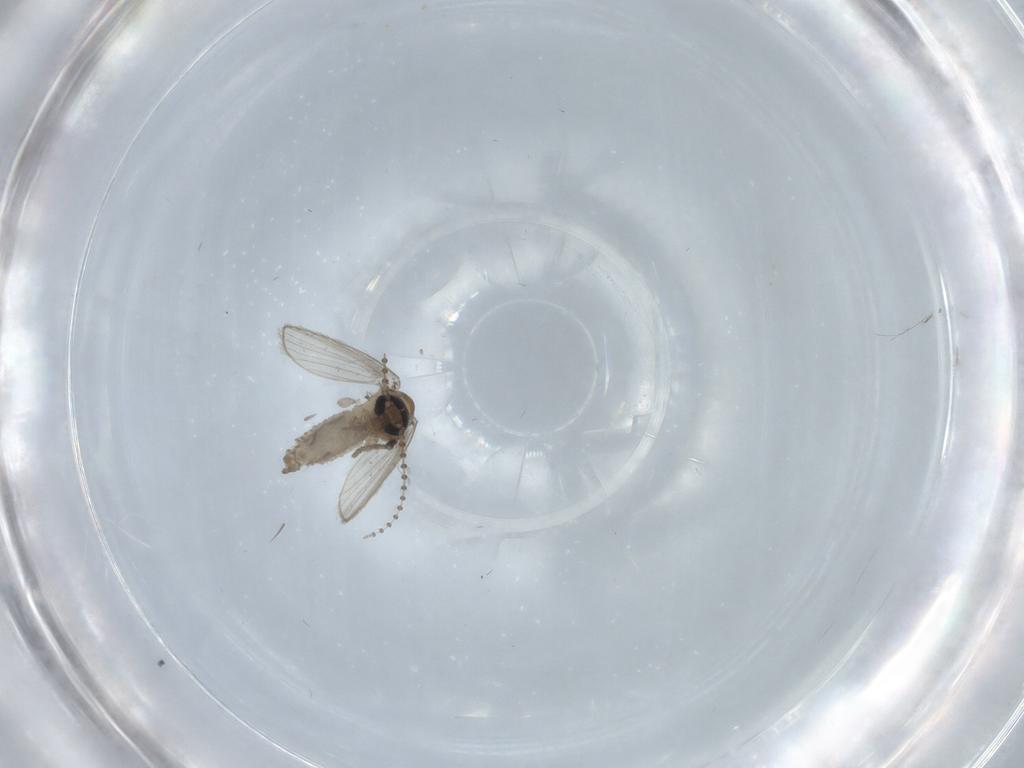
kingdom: Animalia
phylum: Arthropoda
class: Insecta
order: Diptera
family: Psychodidae
